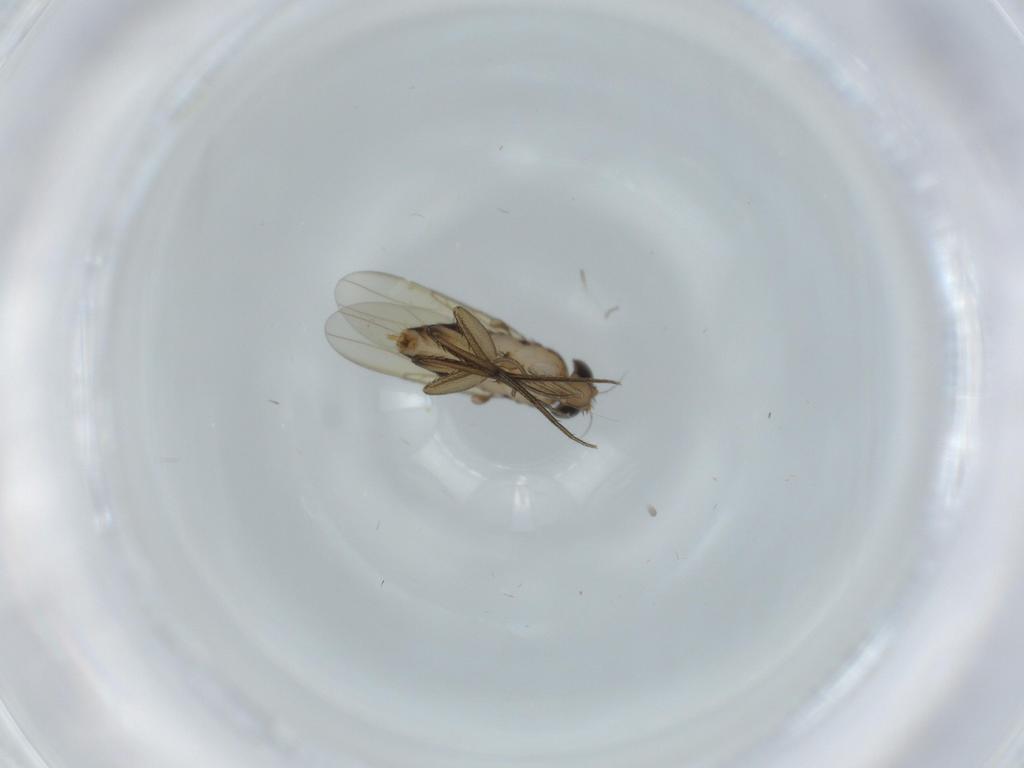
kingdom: Animalia
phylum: Arthropoda
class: Insecta
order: Diptera
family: Phoridae
